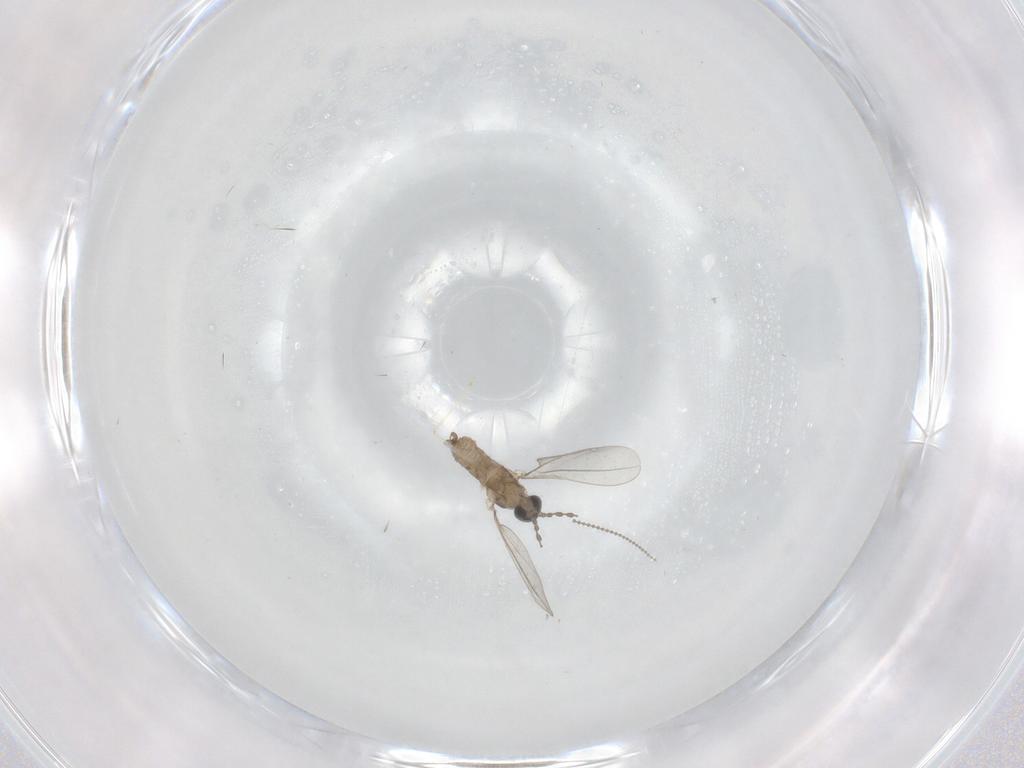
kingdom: Animalia
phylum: Arthropoda
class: Insecta
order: Diptera
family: Cecidomyiidae
